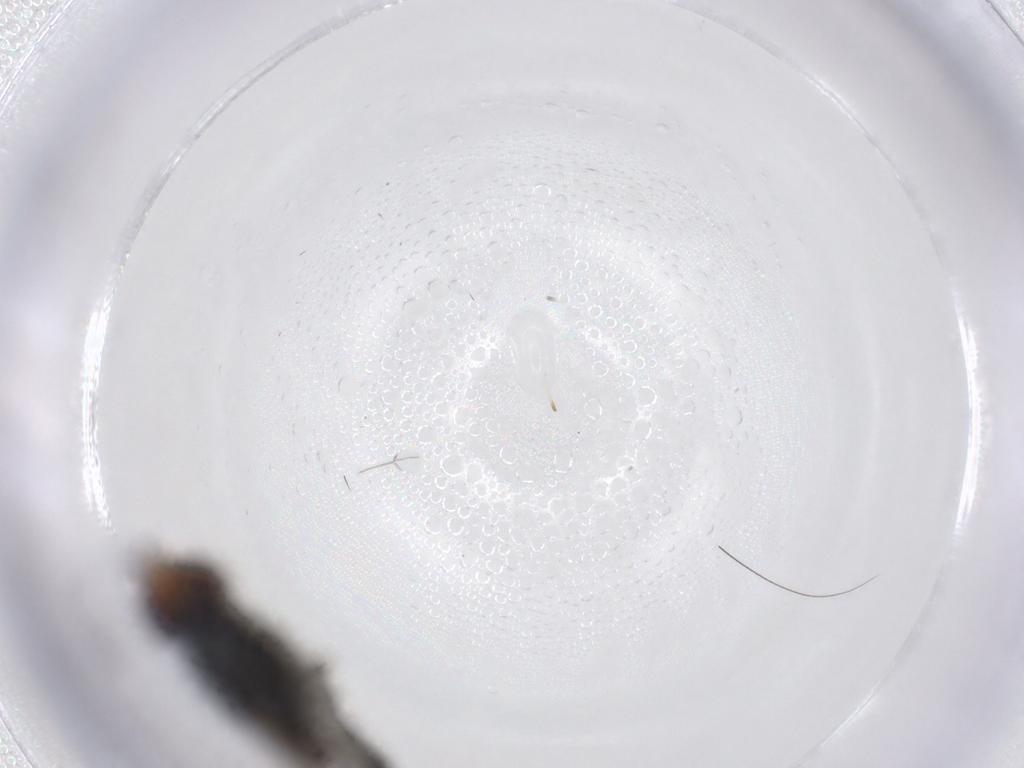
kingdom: Animalia
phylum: Arthropoda
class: Insecta
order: Diptera
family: Heleomyzidae
